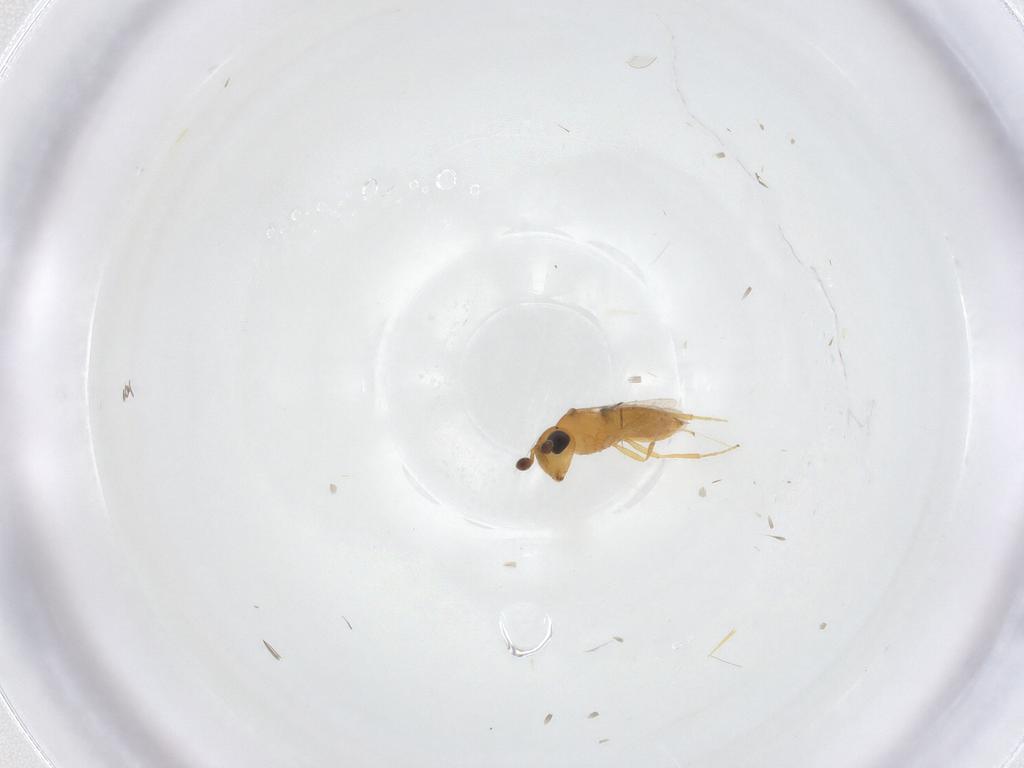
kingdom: Animalia
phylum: Arthropoda
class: Insecta
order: Hymenoptera
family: Scelionidae
